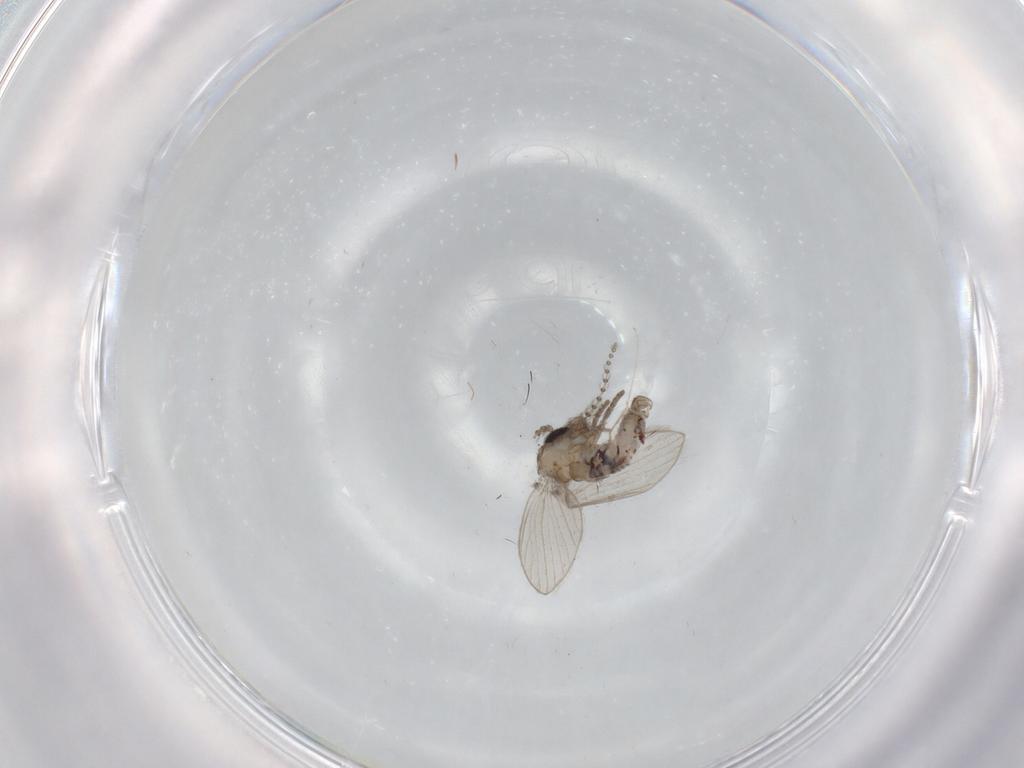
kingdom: Animalia
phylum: Arthropoda
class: Insecta
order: Diptera
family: Psychodidae
